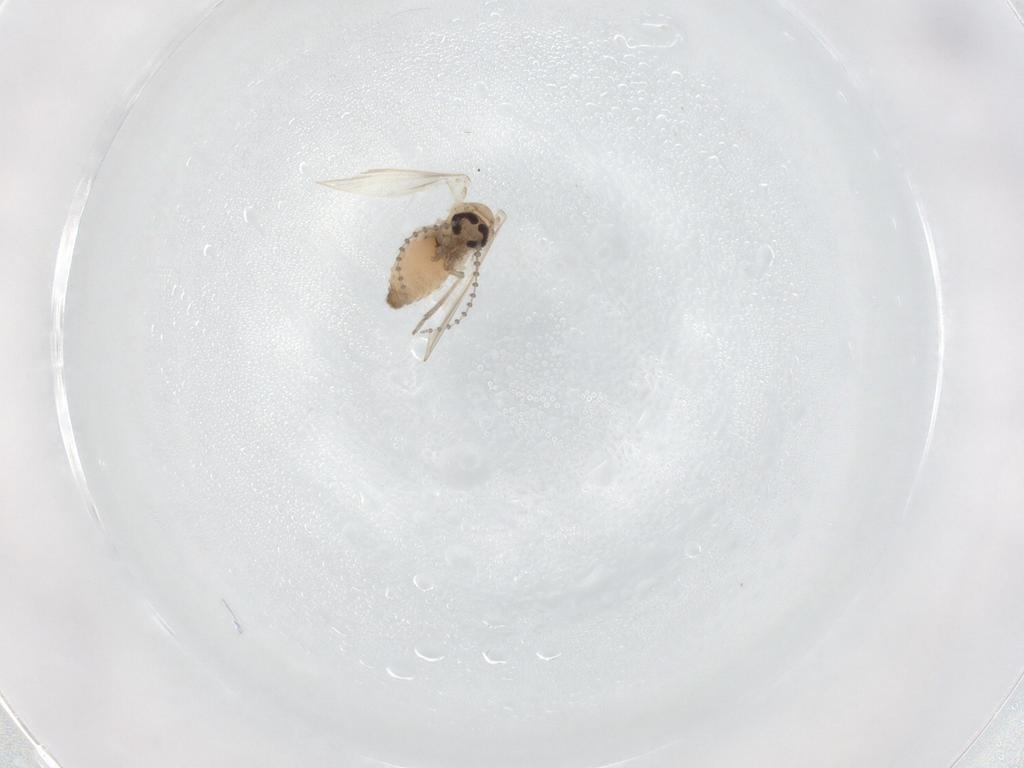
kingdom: Animalia
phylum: Arthropoda
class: Insecta
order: Diptera
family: Psychodidae
